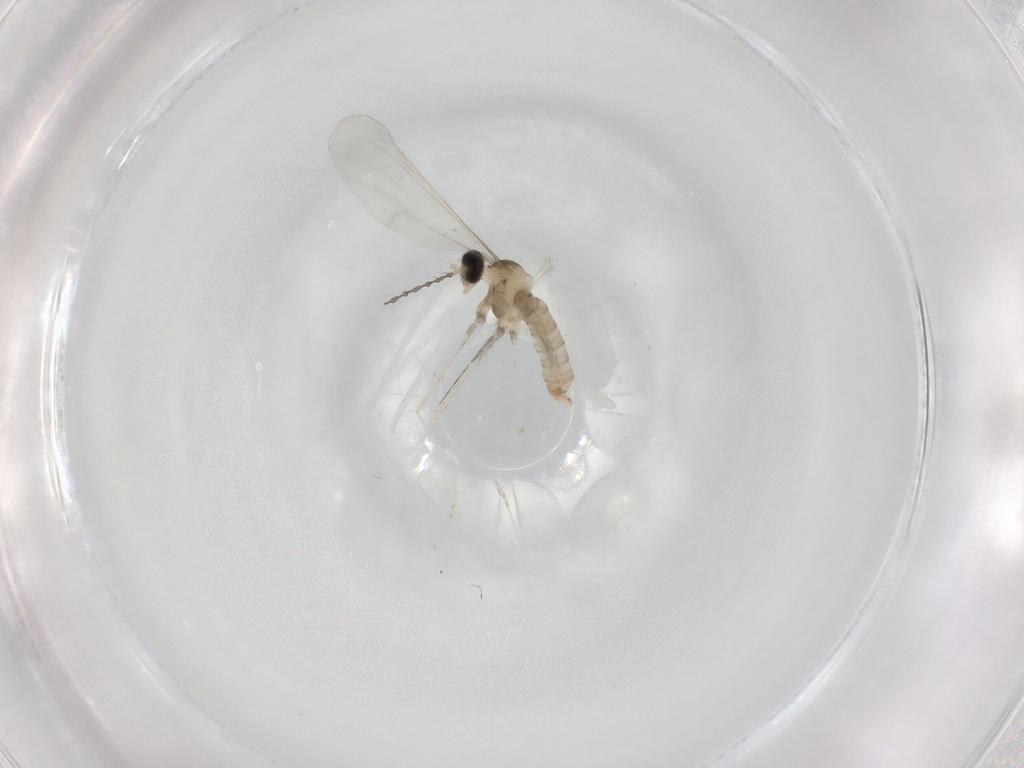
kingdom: Animalia
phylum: Arthropoda
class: Insecta
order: Diptera
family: Cecidomyiidae
